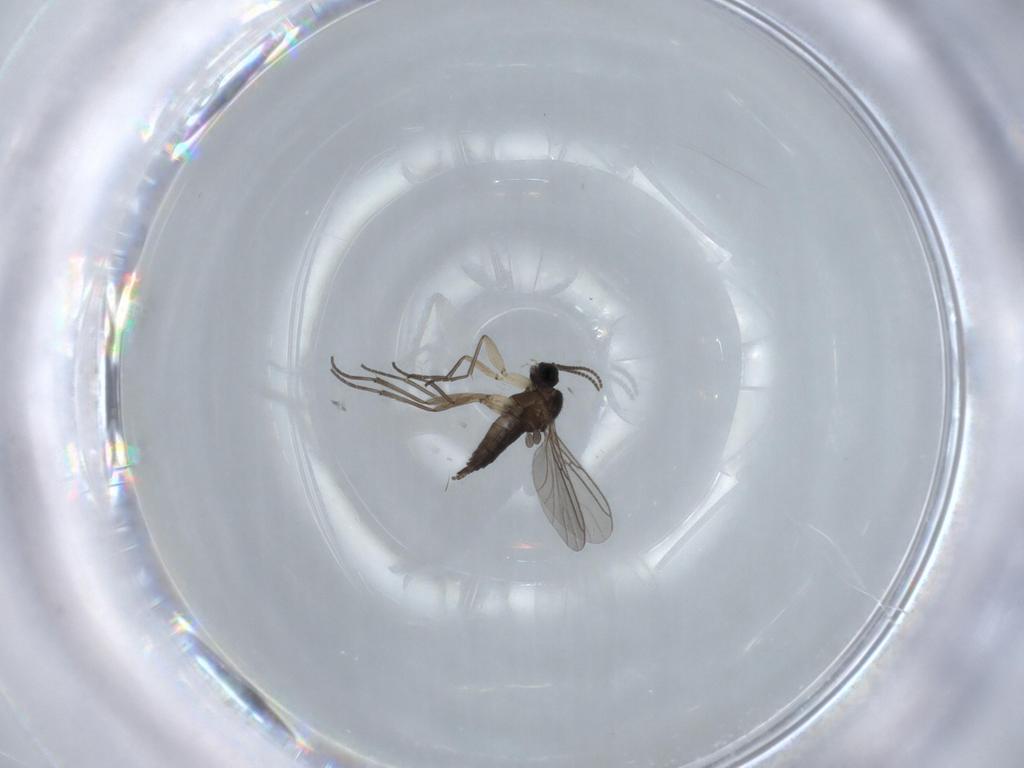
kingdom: Animalia
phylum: Arthropoda
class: Insecta
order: Diptera
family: Sciaridae
